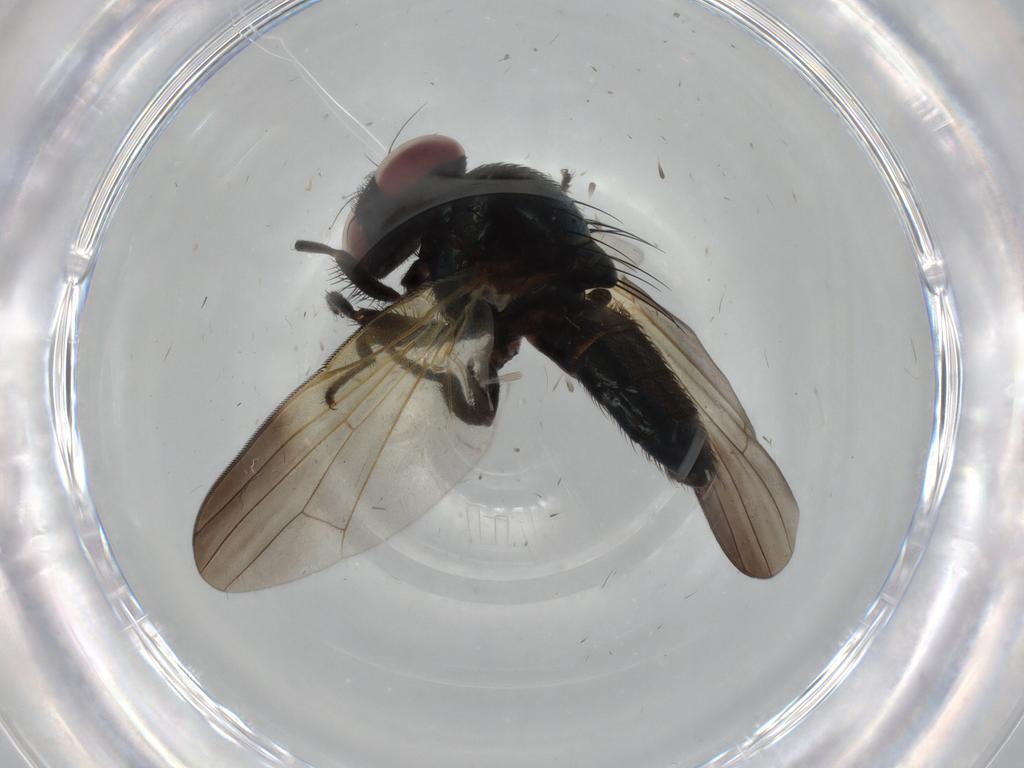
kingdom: Animalia
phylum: Arthropoda
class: Insecta
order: Diptera
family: Lonchaeidae
